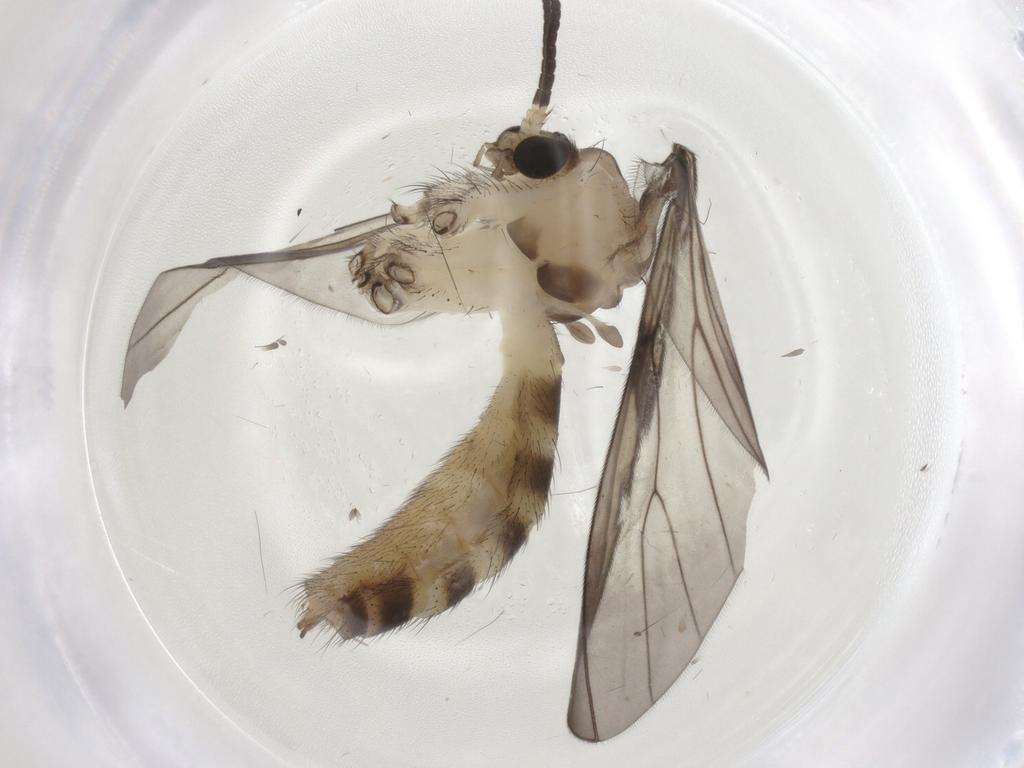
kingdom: Animalia
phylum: Arthropoda
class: Insecta
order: Diptera
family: Mycetophilidae
